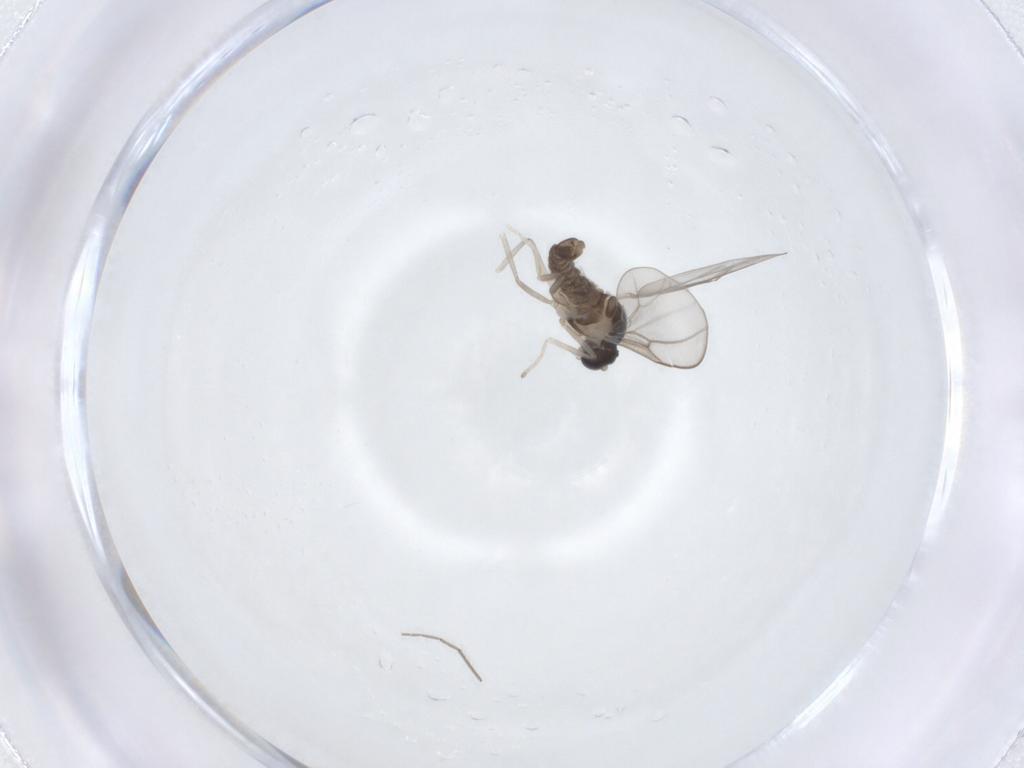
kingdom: Animalia
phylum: Arthropoda
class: Insecta
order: Diptera
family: Cecidomyiidae
